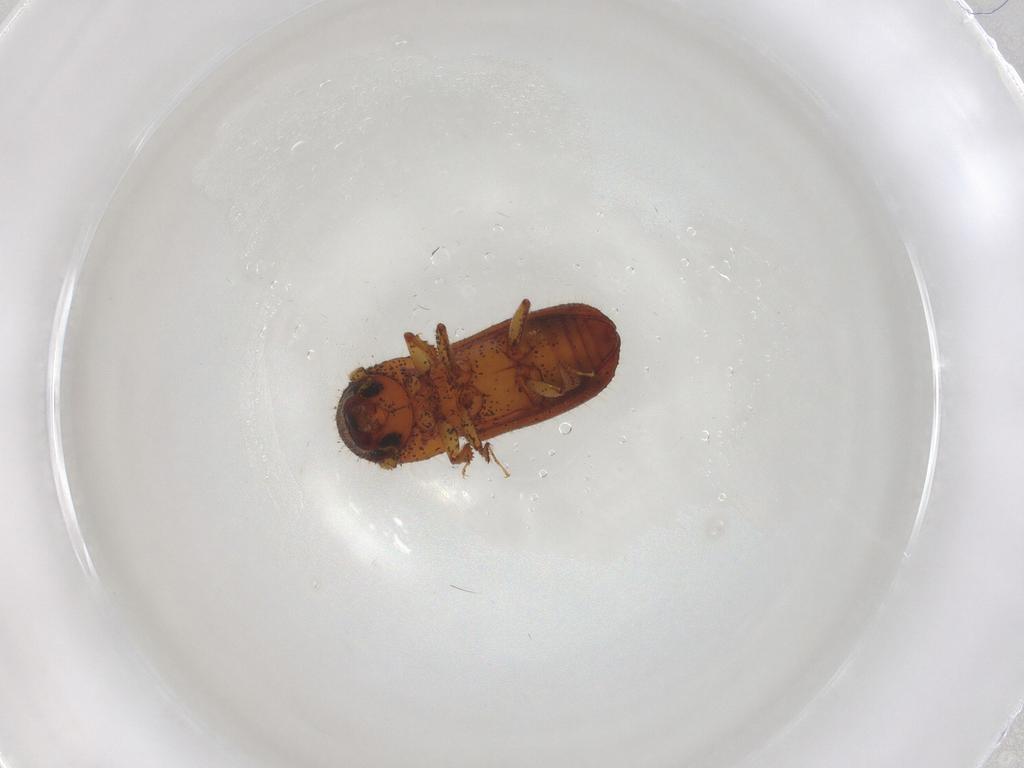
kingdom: Animalia
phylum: Arthropoda
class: Insecta
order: Coleoptera
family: Curculionidae
